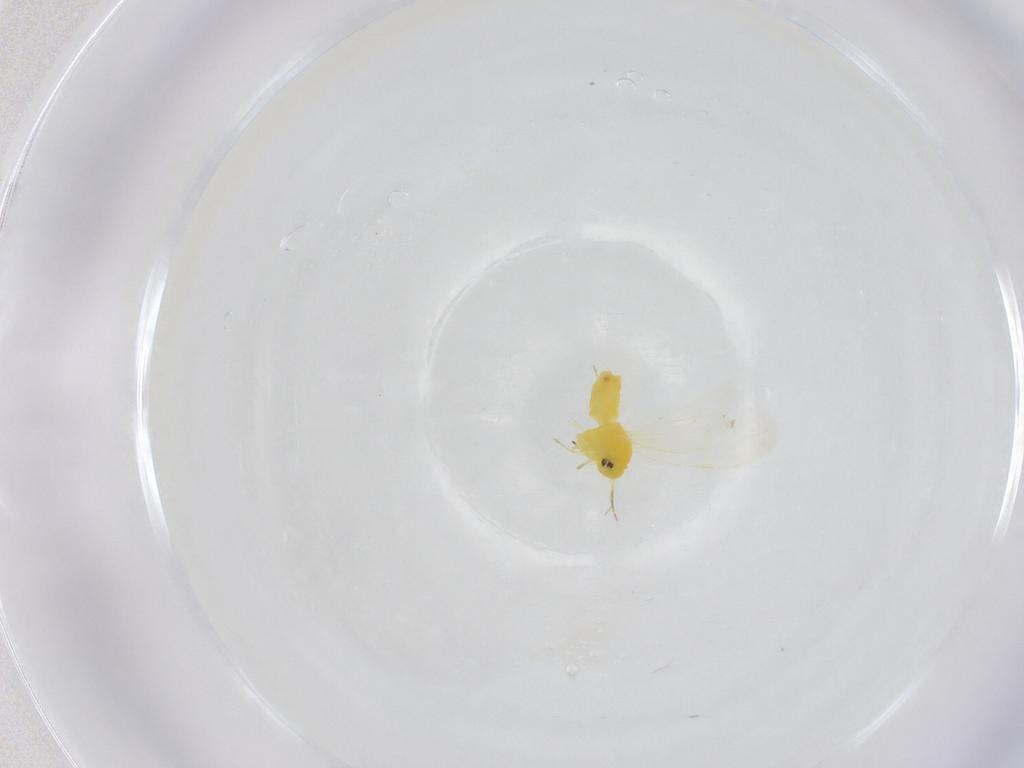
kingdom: Animalia
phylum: Arthropoda
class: Insecta
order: Hemiptera
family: Aleyrodidae
